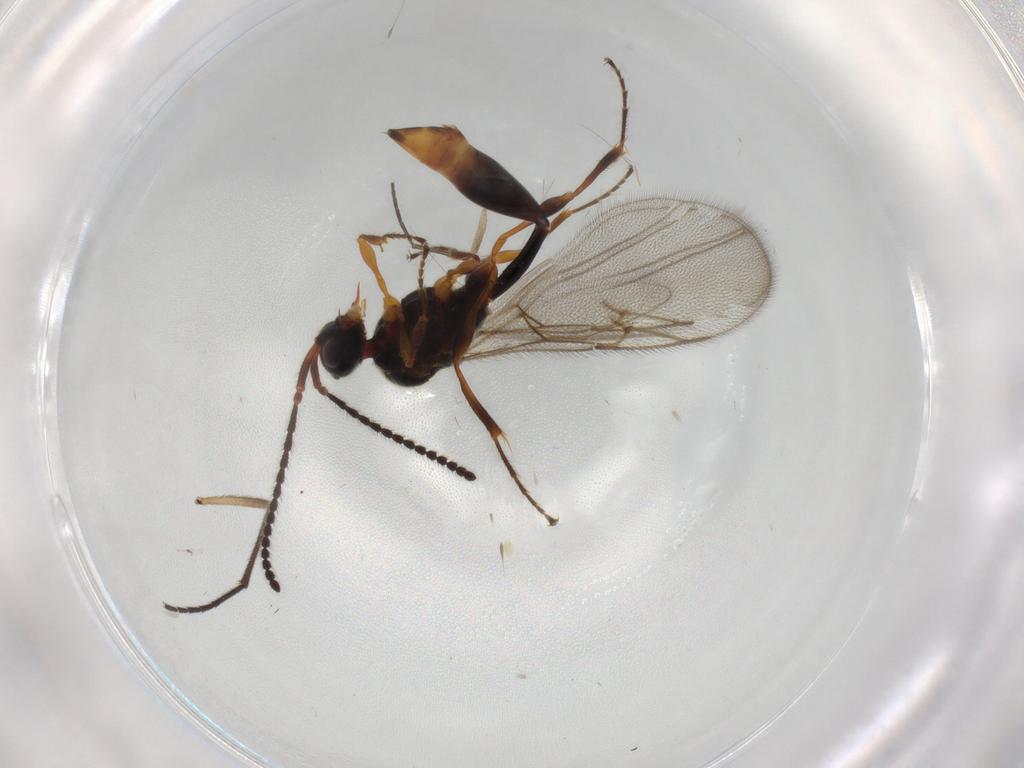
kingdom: Animalia
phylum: Arthropoda
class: Insecta
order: Hymenoptera
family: Diapriidae
